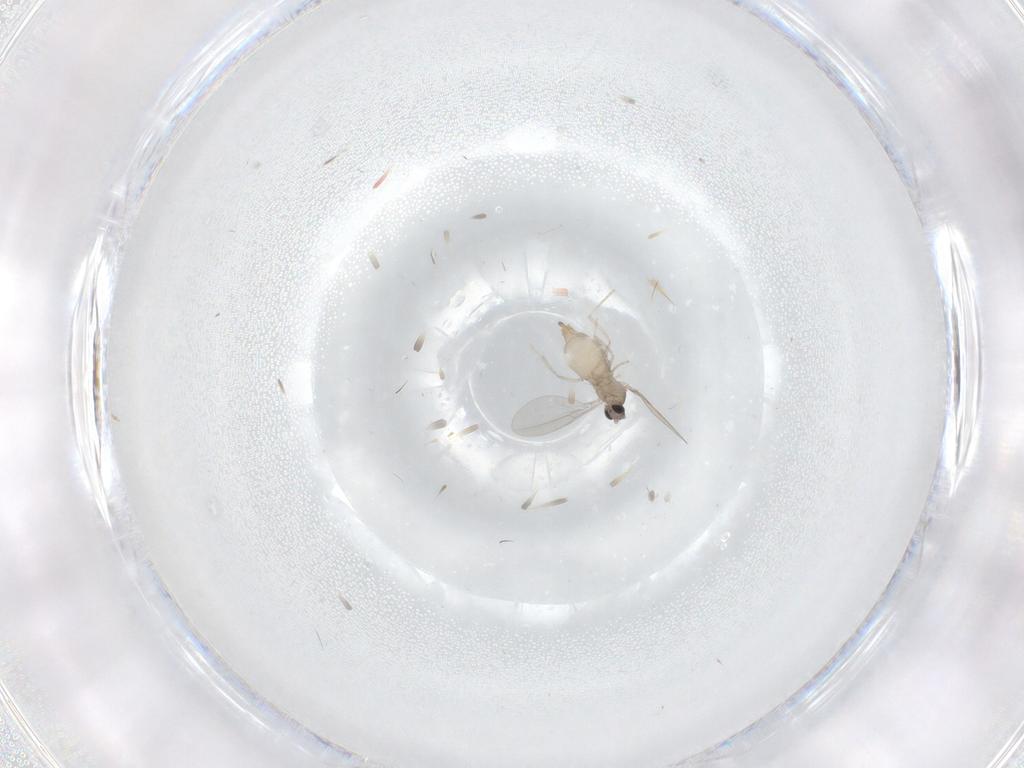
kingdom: Animalia
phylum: Arthropoda
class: Insecta
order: Diptera
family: Cecidomyiidae
